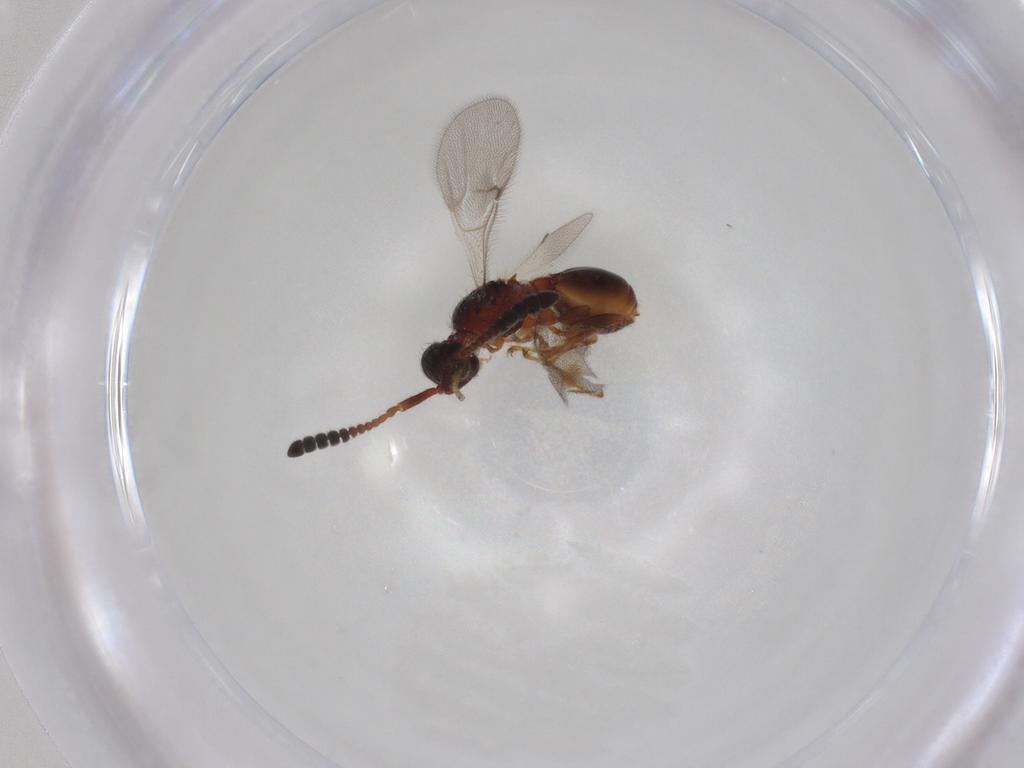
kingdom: Animalia
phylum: Arthropoda
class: Insecta
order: Hymenoptera
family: Diapriidae
